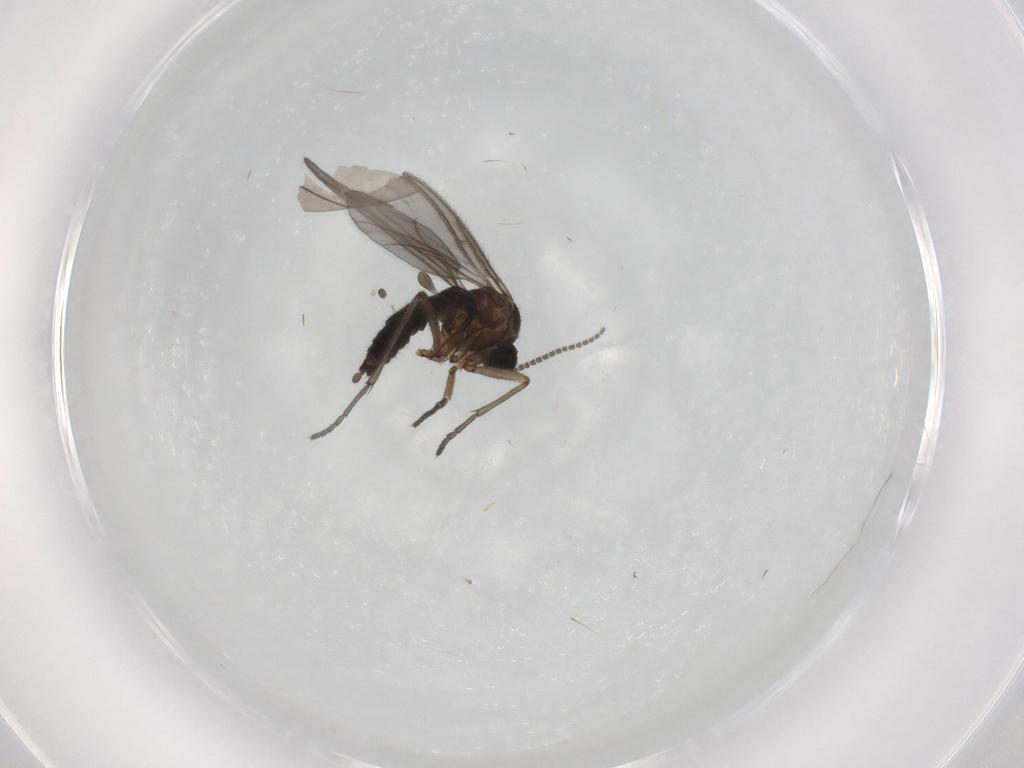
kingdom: Animalia
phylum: Arthropoda
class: Insecta
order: Diptera
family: Sciaridae
